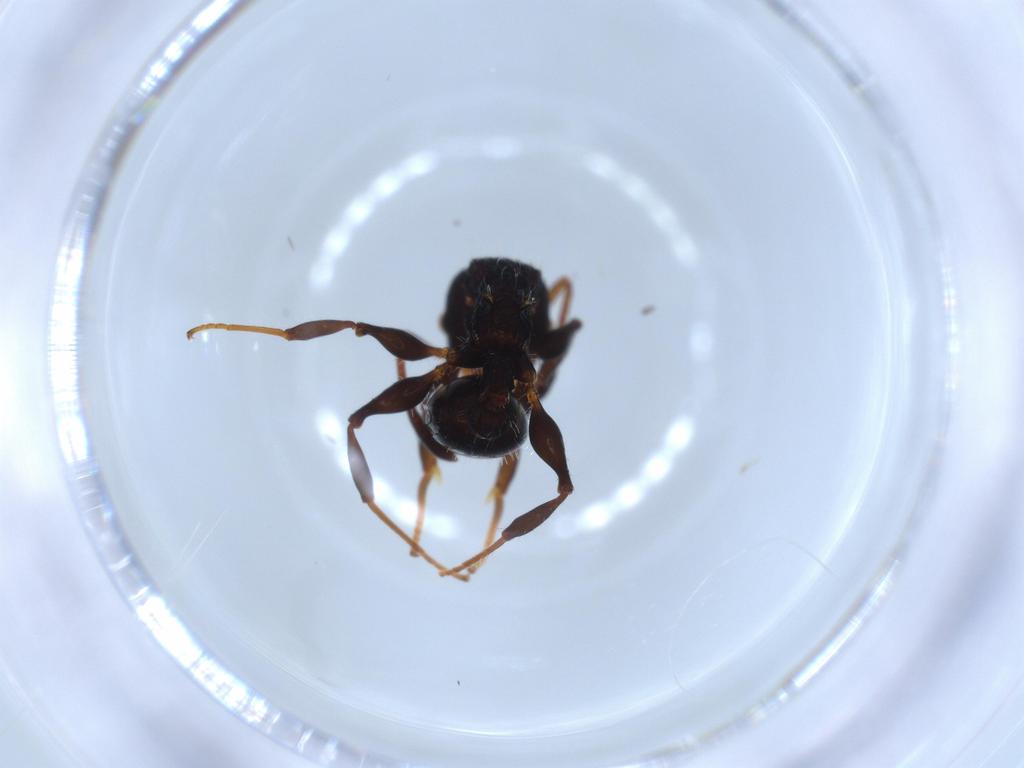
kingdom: Animalia
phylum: Arthropoda
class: Insecta
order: Hymenoptera
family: Formicidae
